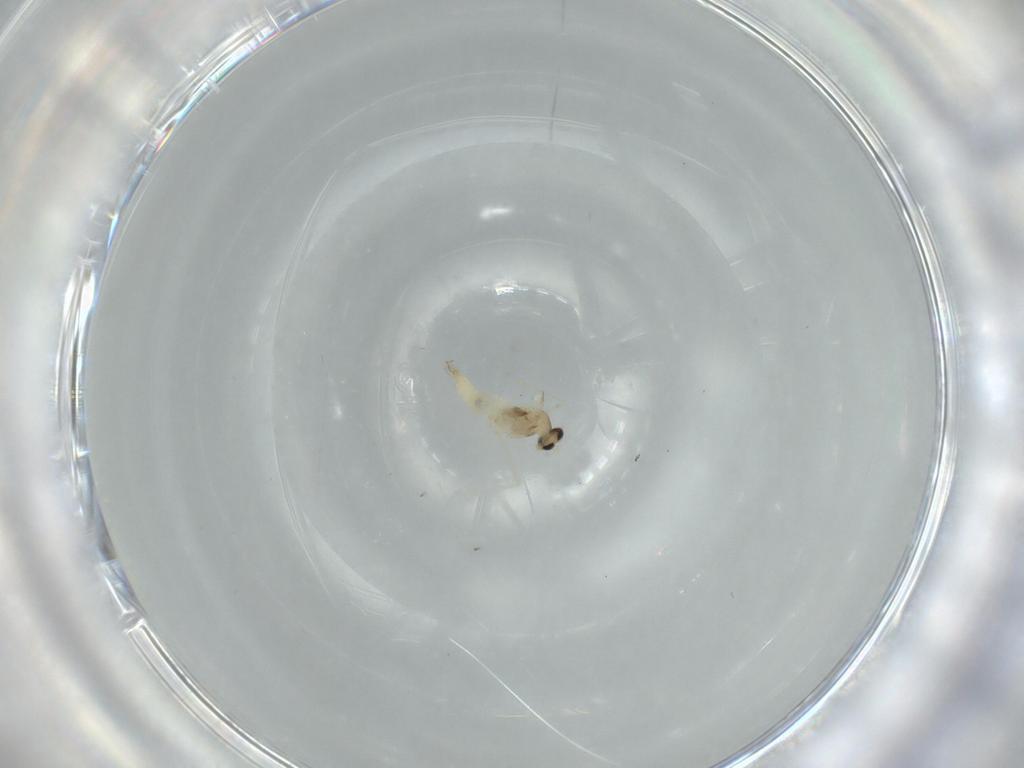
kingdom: Animalia
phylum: Arthropoda
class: Insecta
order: Diptera
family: Cecidomyiidae
